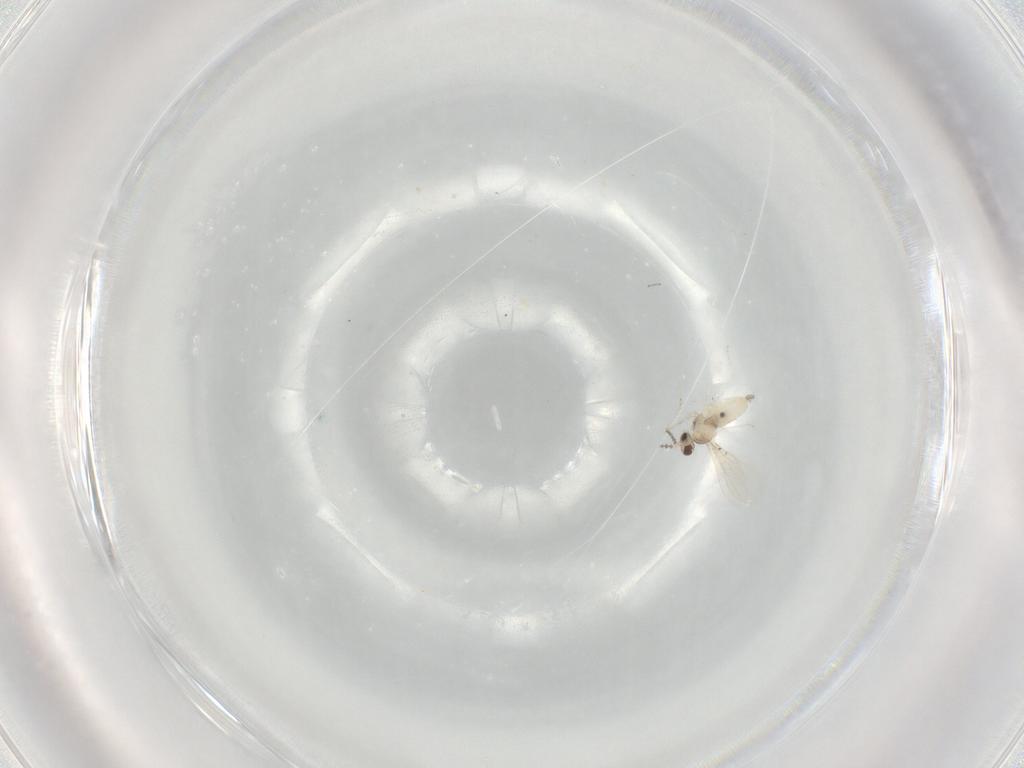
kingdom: Animalia
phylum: Arthropoda
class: Insecta
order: Diptera
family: Cecidomyiidae
